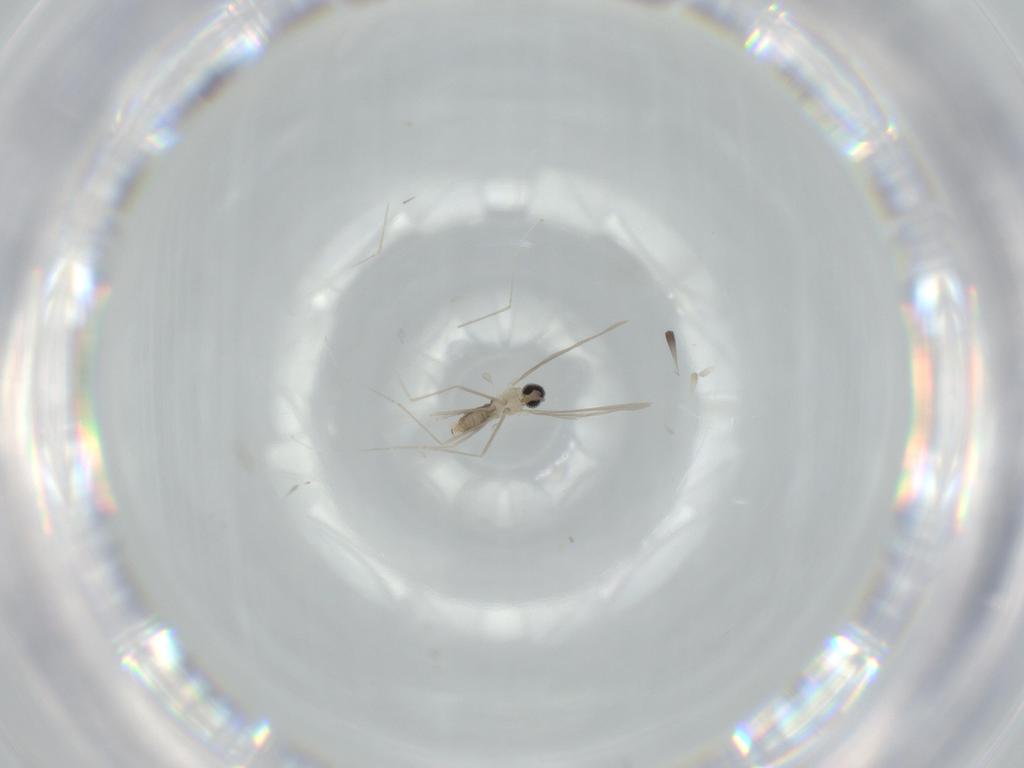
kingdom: Animalia
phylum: Arthropoda
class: Insecta
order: Diptera
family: Cecidomyiidae
